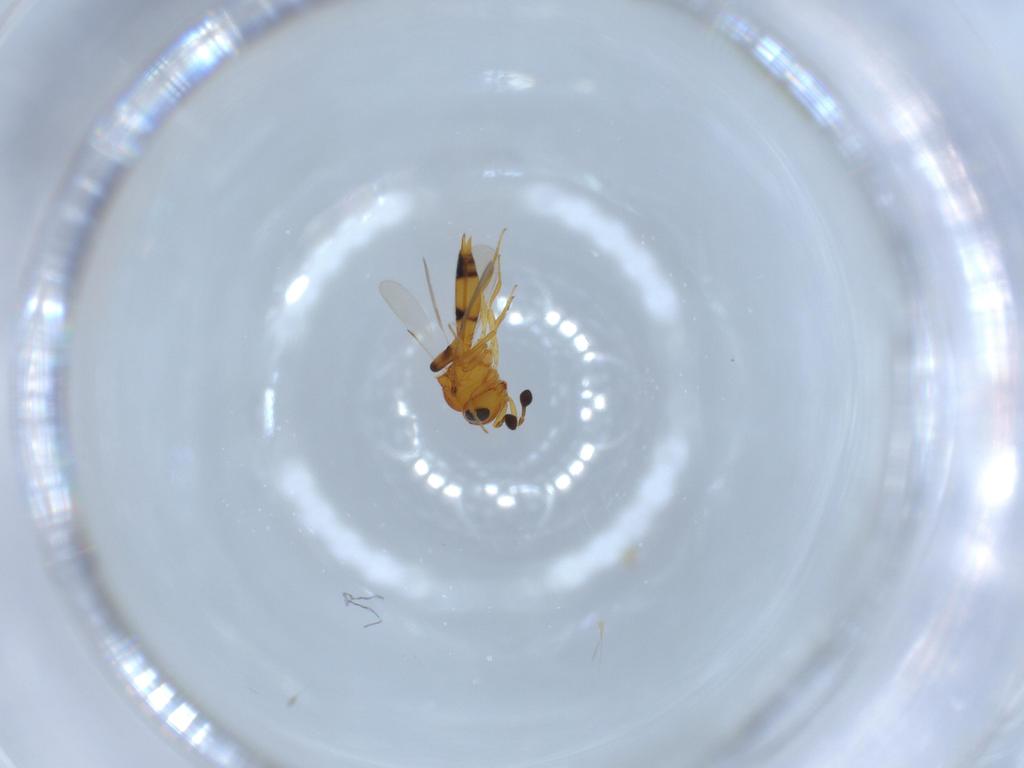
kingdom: Animalia
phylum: Arthropoda
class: Insecta
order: Hymenoptera
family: Scelionidae
